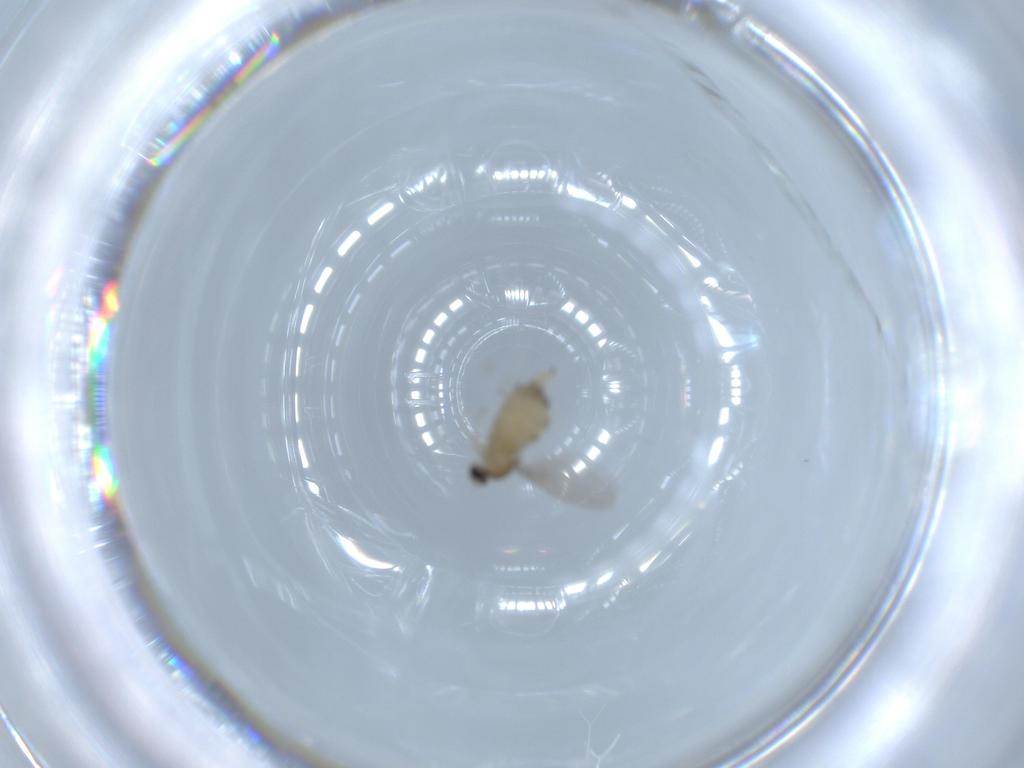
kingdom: Animalia
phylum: Arthropoda
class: Insecta
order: Diptera
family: Cecidomyiidae
